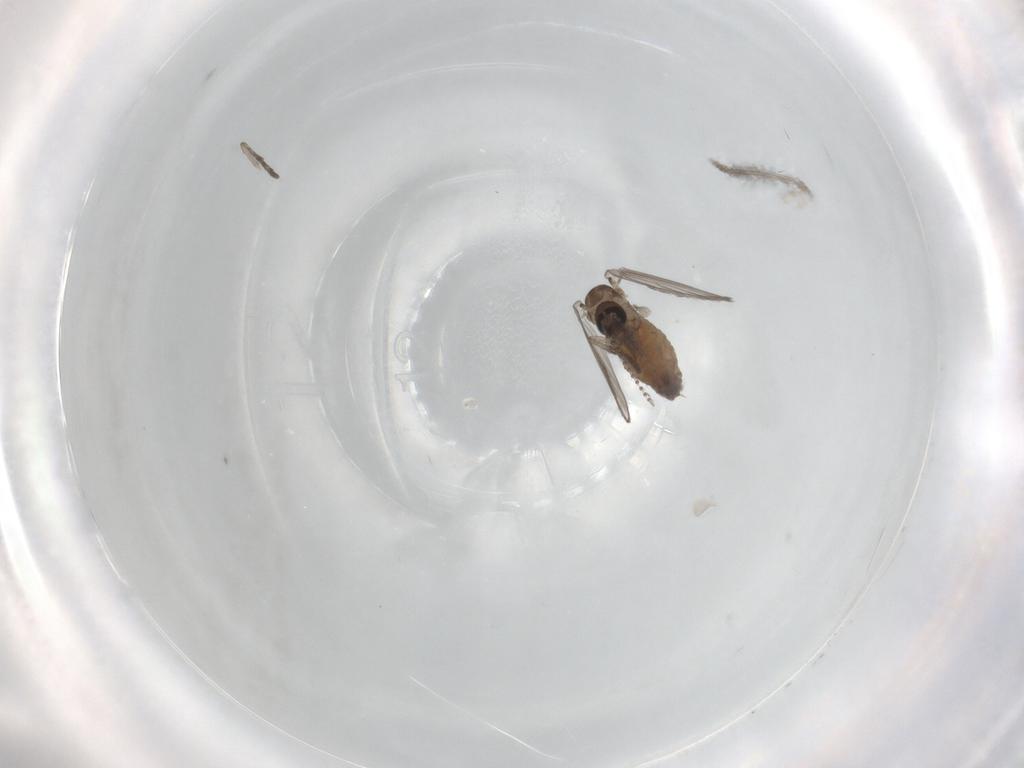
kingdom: Animalia
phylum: Arthropoda
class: Insecta
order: Diptera
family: Psychodidae
